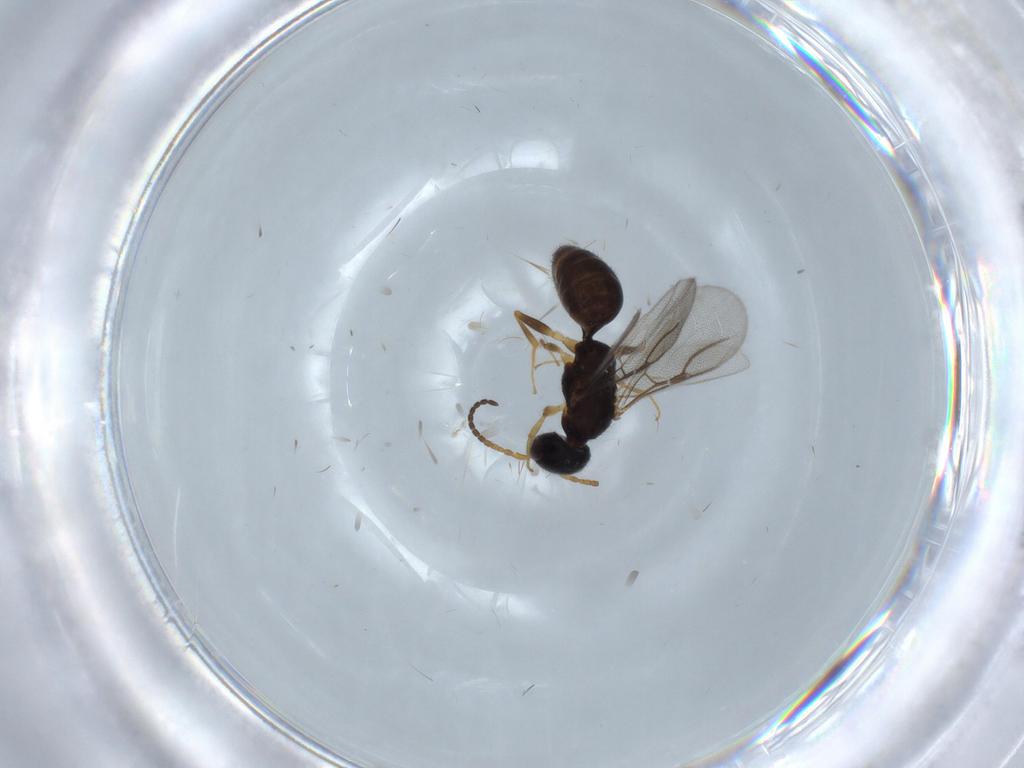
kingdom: Animalia
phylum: Arthropoda
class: Insecta
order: Hymenoptera
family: Bethylidae
